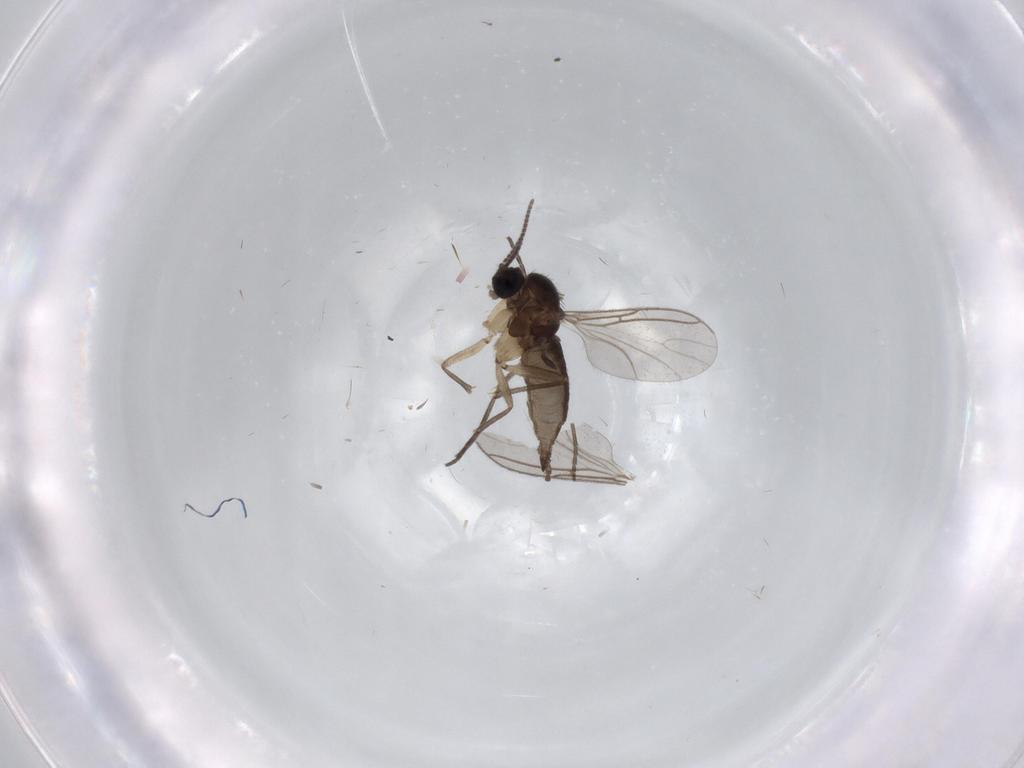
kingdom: Animalia
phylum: Arthropoda
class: Insecta
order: Diptera
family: Sciaridae
